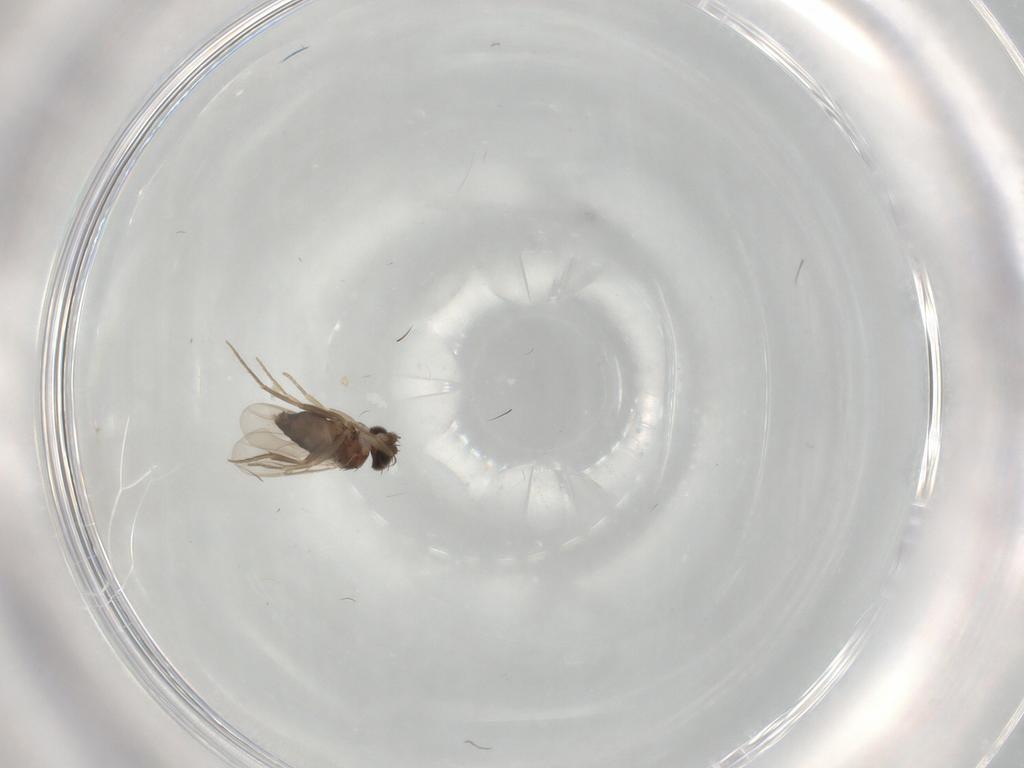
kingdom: Animalia
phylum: Arthropoda
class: Insecta
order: Diptera
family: Phoridae
